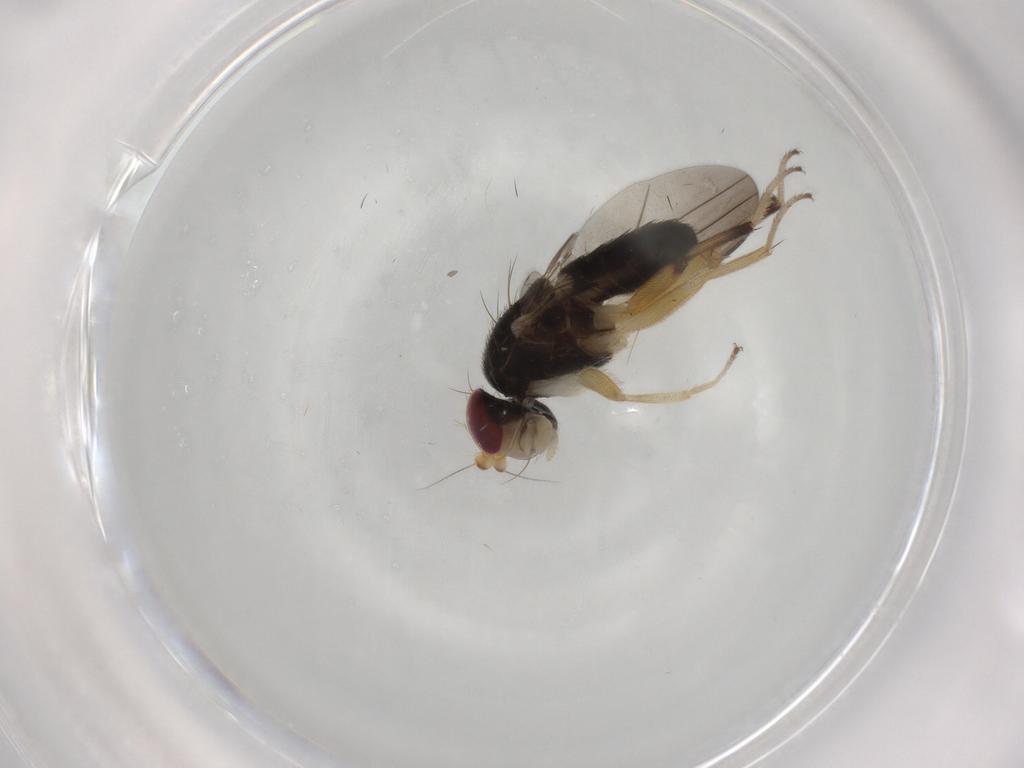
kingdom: Animalia
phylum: Arthropoda
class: Insecta
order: Diptera
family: Clusiidae
